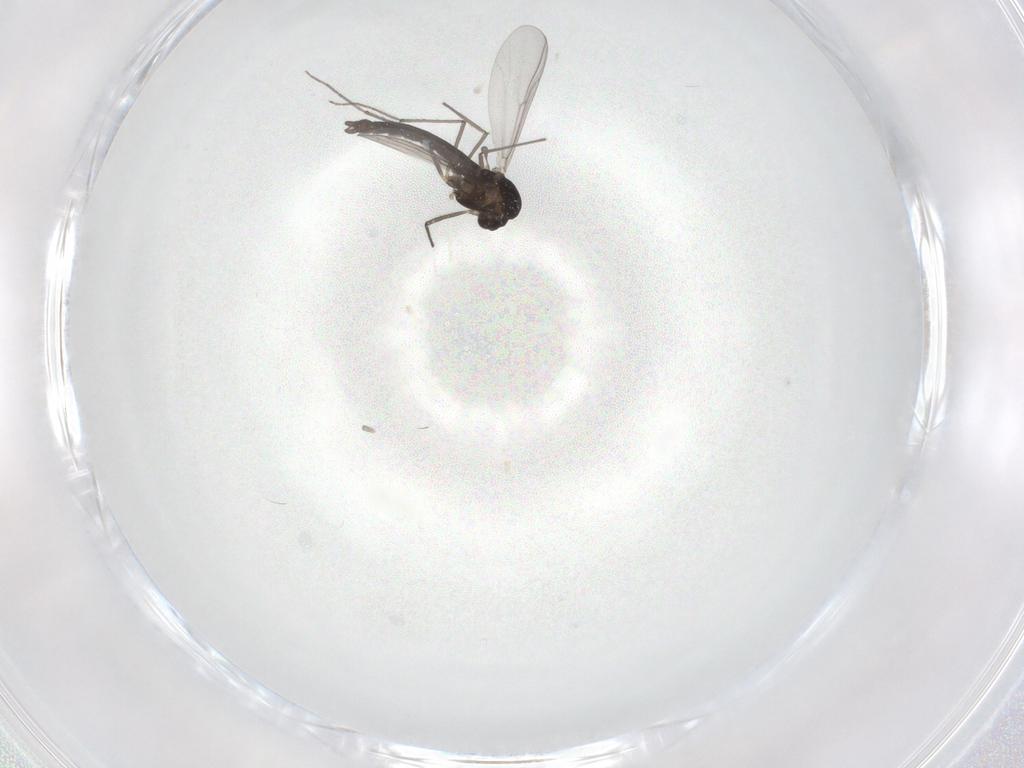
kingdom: Animalia
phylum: Arthropoda
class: Insecta
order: Diptera
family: Chironomidae
